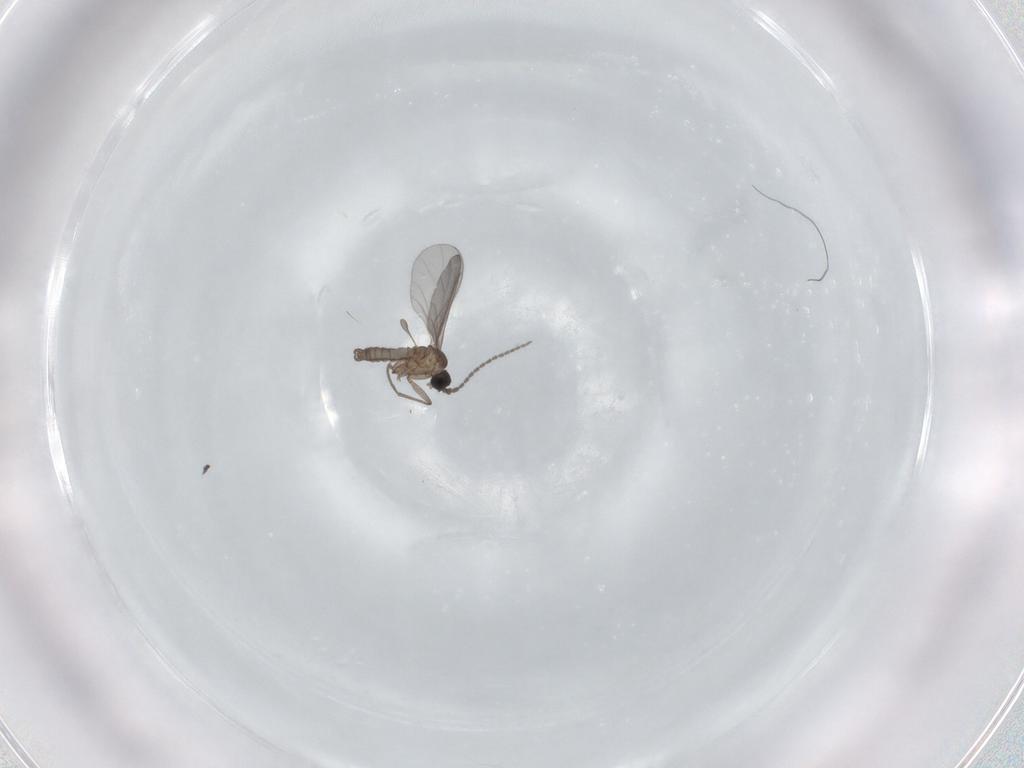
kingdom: Animalia
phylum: Arthropoda
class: Insecta
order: Diptera
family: Sciaridae
